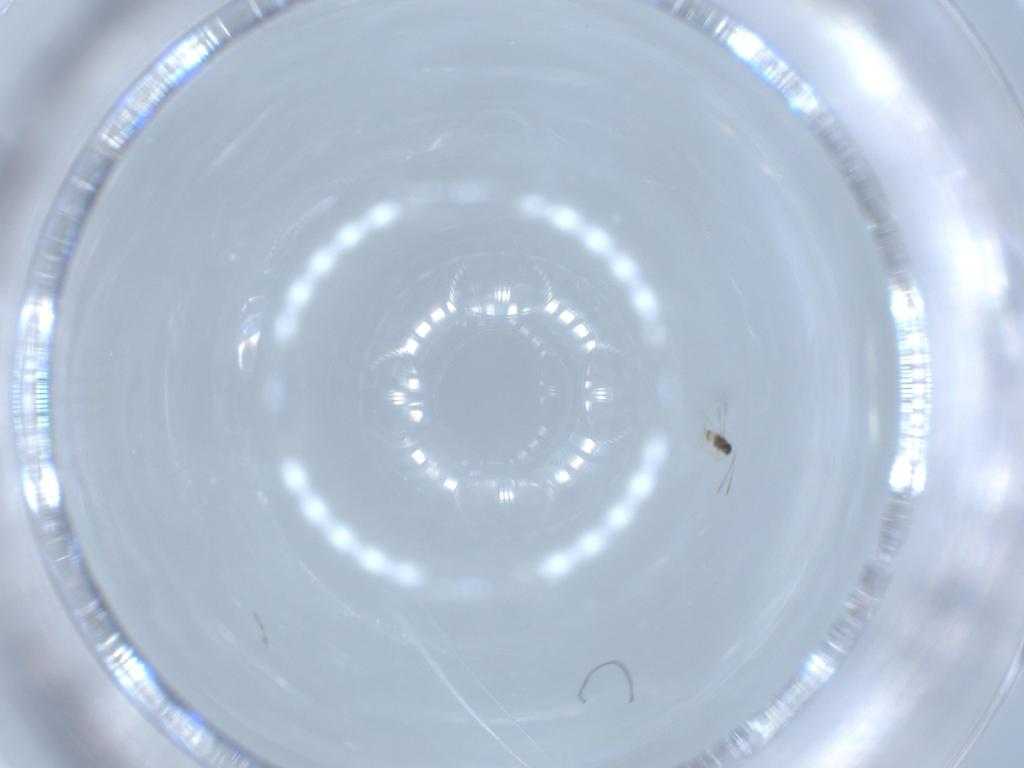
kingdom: Animalia
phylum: Arthropoda
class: Insecta
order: Hymenoptera
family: Mymaridae
